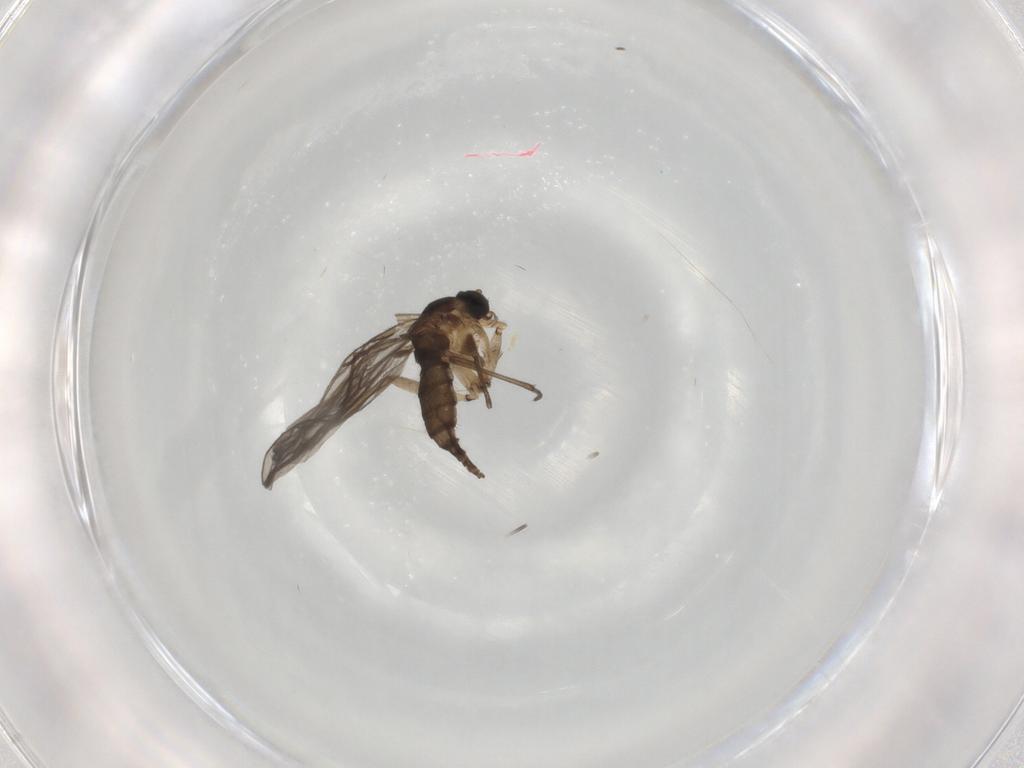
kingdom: Animalia
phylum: Arthropoda
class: Insecta
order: Diptera
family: Sciaridae
